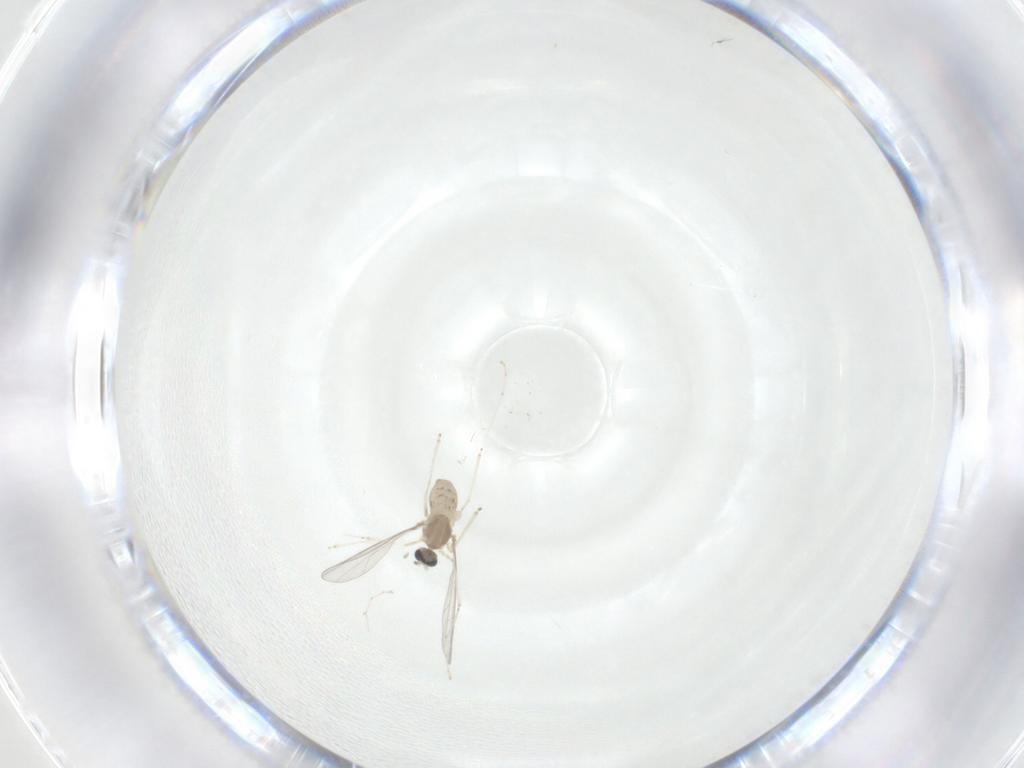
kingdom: Animalia
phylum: Arthropoda
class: Insecta
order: Diptera
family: Cecidomyiidae
